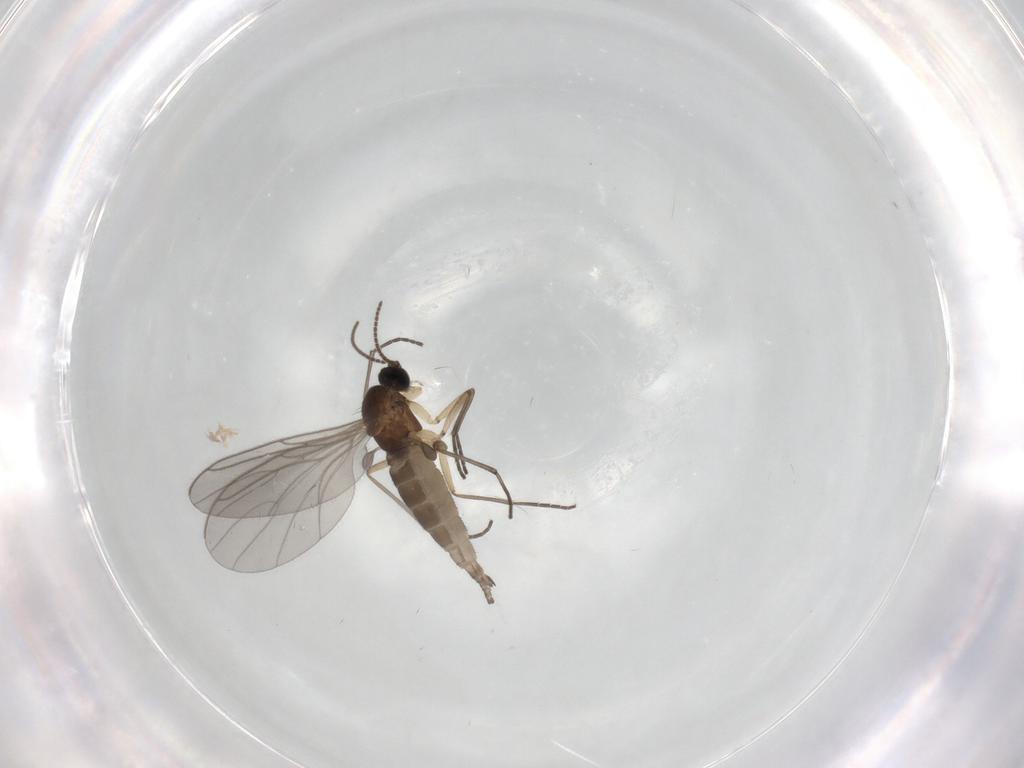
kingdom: Animalia
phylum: Arthropoda
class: Insecta
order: Diptera
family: Sciaridae
